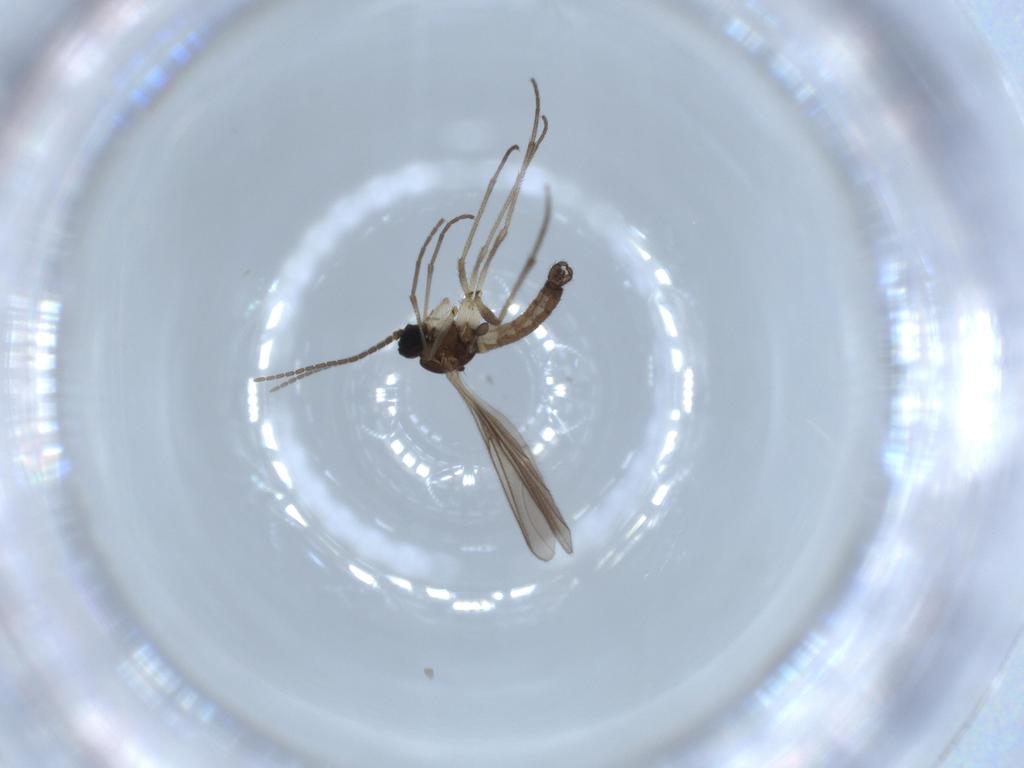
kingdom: Animalia
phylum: Arthropoda
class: Insecta
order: Diptera
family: Sciaridae
